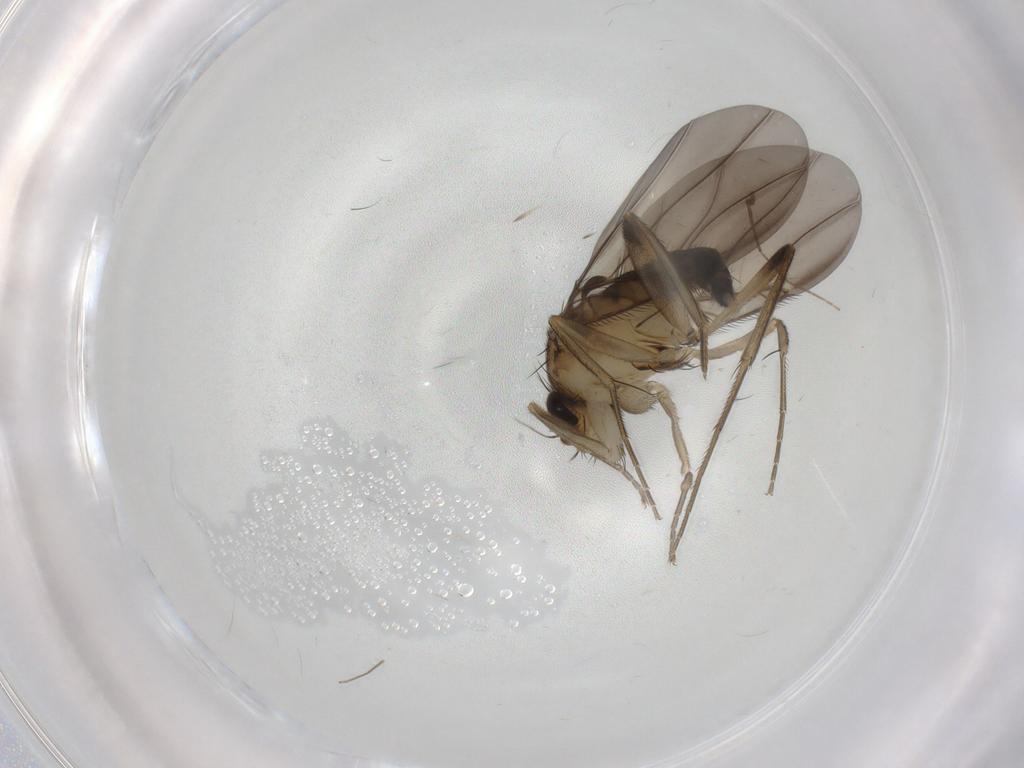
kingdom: Animalia
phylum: Arthropoda
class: Insecta
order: Diptera
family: Phoridae
